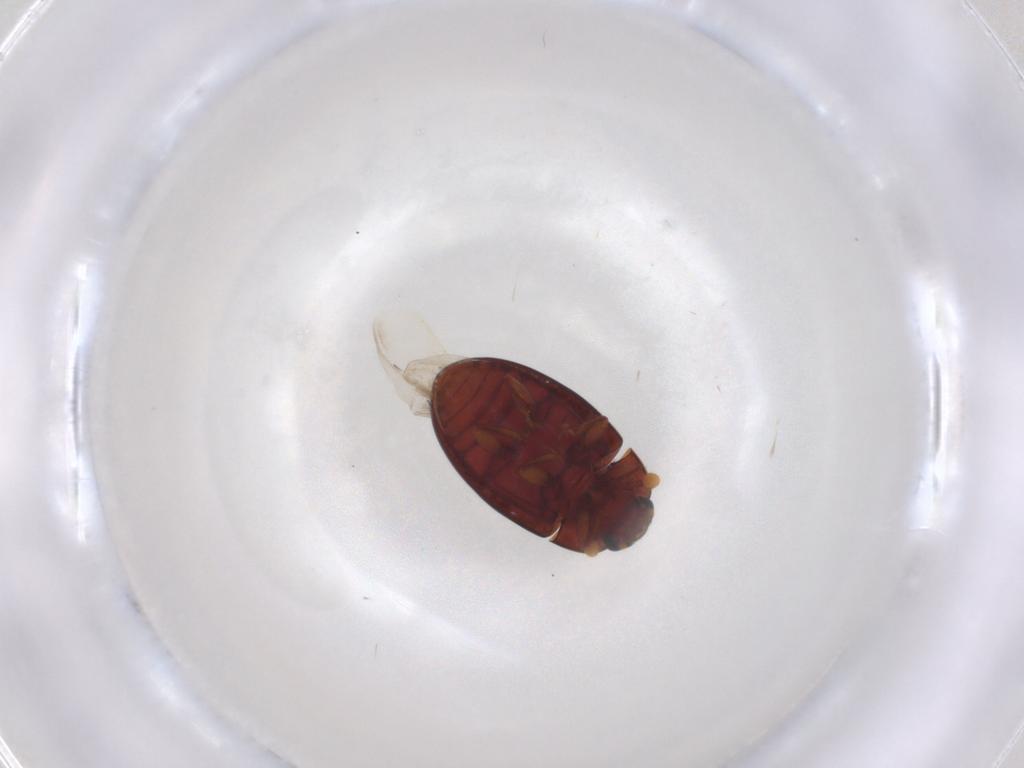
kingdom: Animalia
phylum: Arthropoda
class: Insecta
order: Coleoptera
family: Euxestidae
